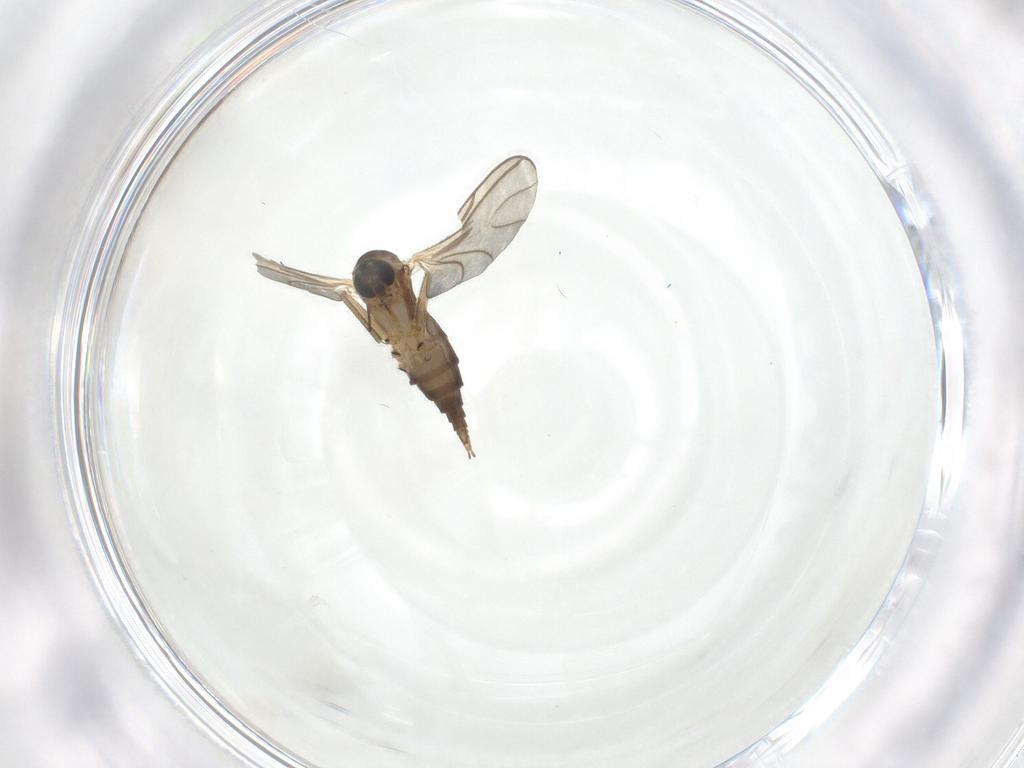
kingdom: Animalia
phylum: Arthropoda
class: Insecta
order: Diptera
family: Sciaridae
